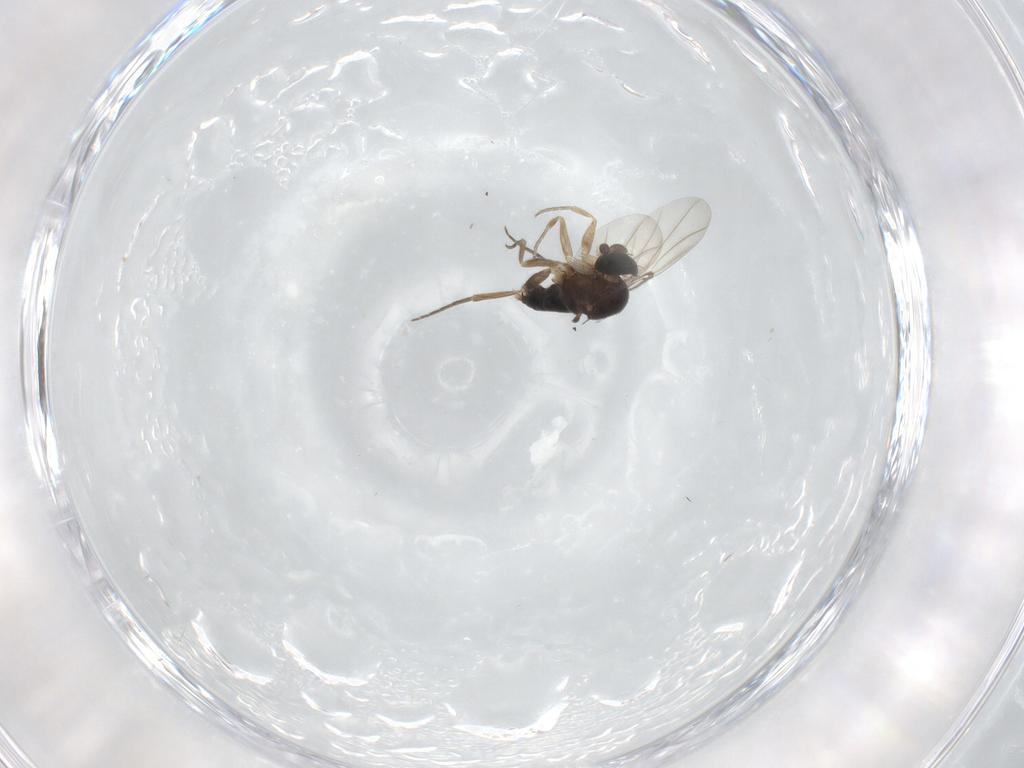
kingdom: Animalia
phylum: Arthropoda
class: Insecta
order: Diptera
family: Phoridae
